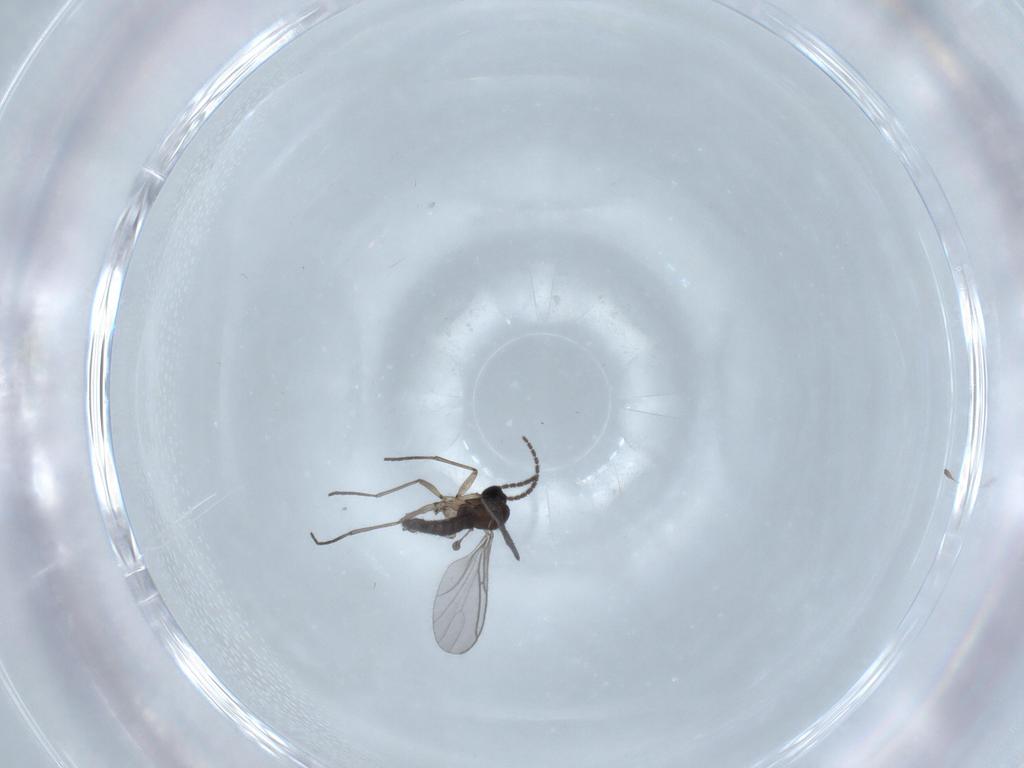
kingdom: Animalia
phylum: Arthropoda
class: Insecta
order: Diptera
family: Sciaridae
